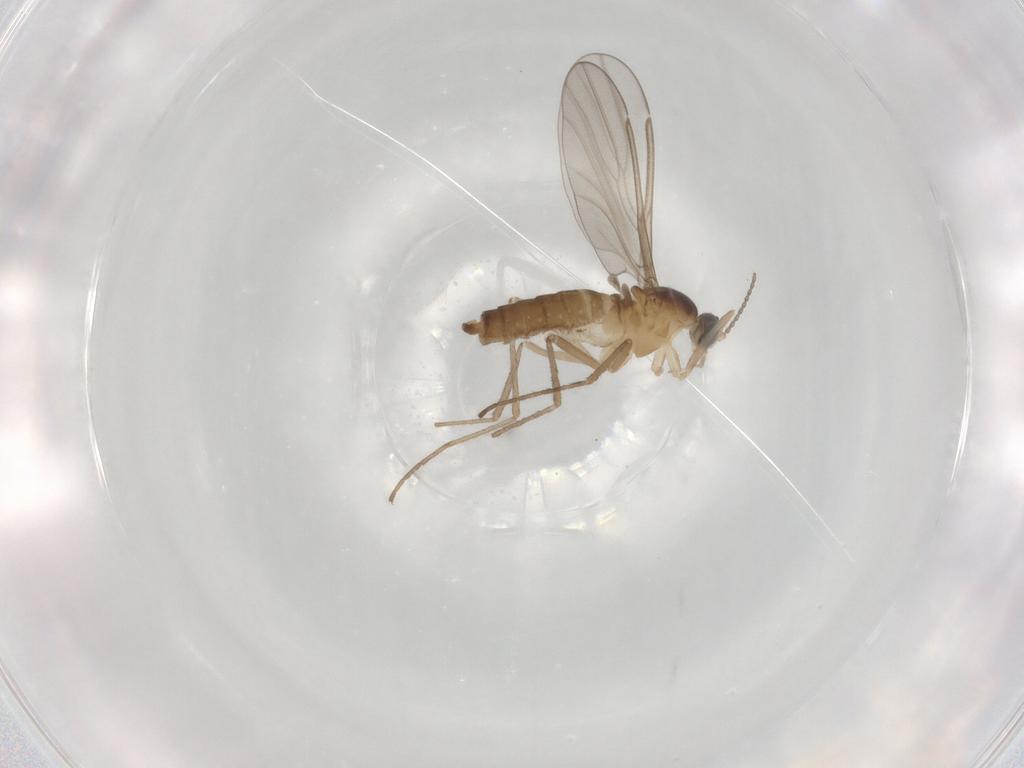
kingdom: Animalia
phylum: Arthropoda
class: Insecta
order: Diptera
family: Cecidomyiidae
